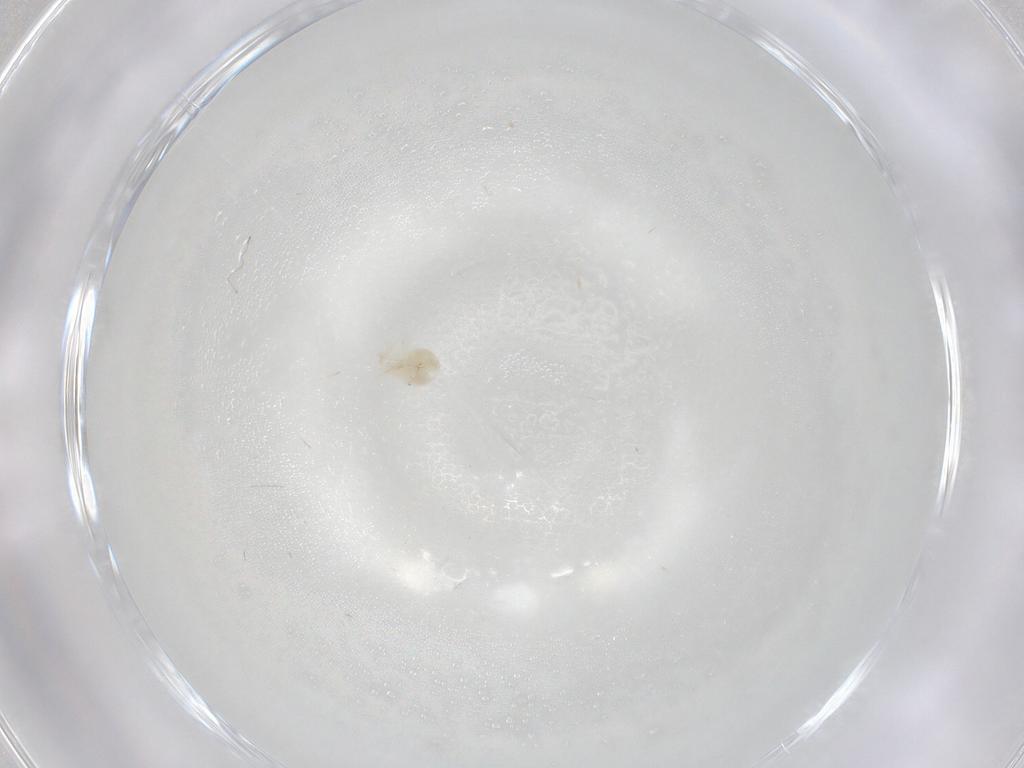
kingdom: Animalia
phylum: Arthropoda
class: Arachnida
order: Trombidiformes
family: Anystidae
